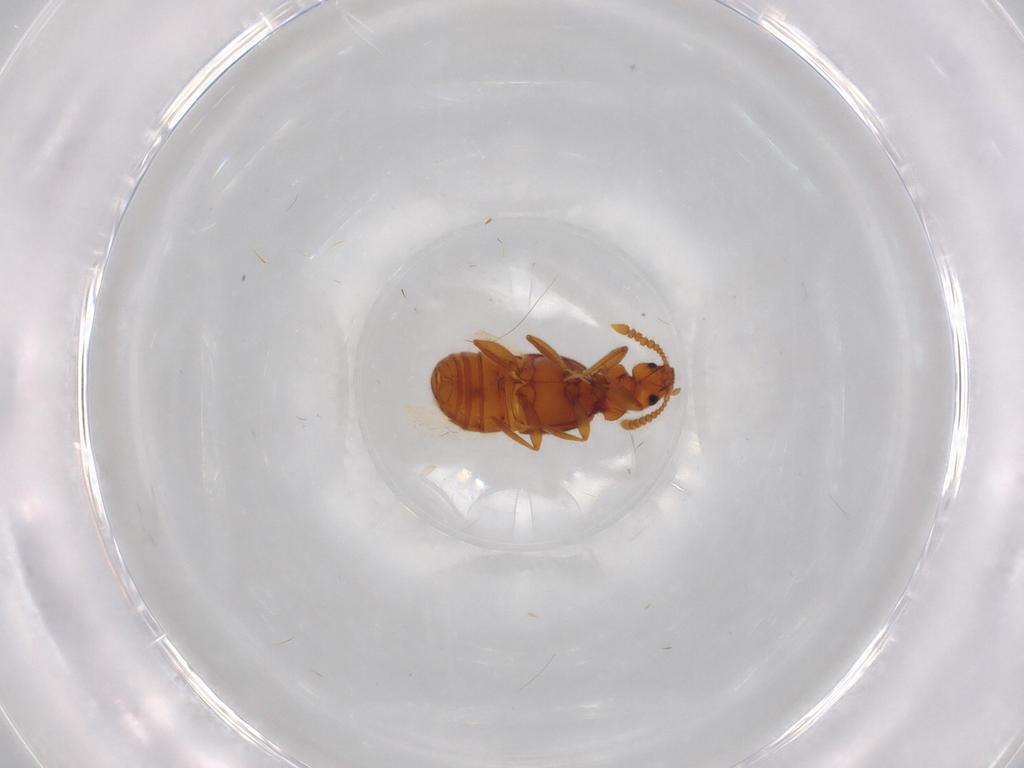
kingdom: Animalia
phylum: Arthropoda
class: Insecta
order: Coleoptera
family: Staphylinidae
